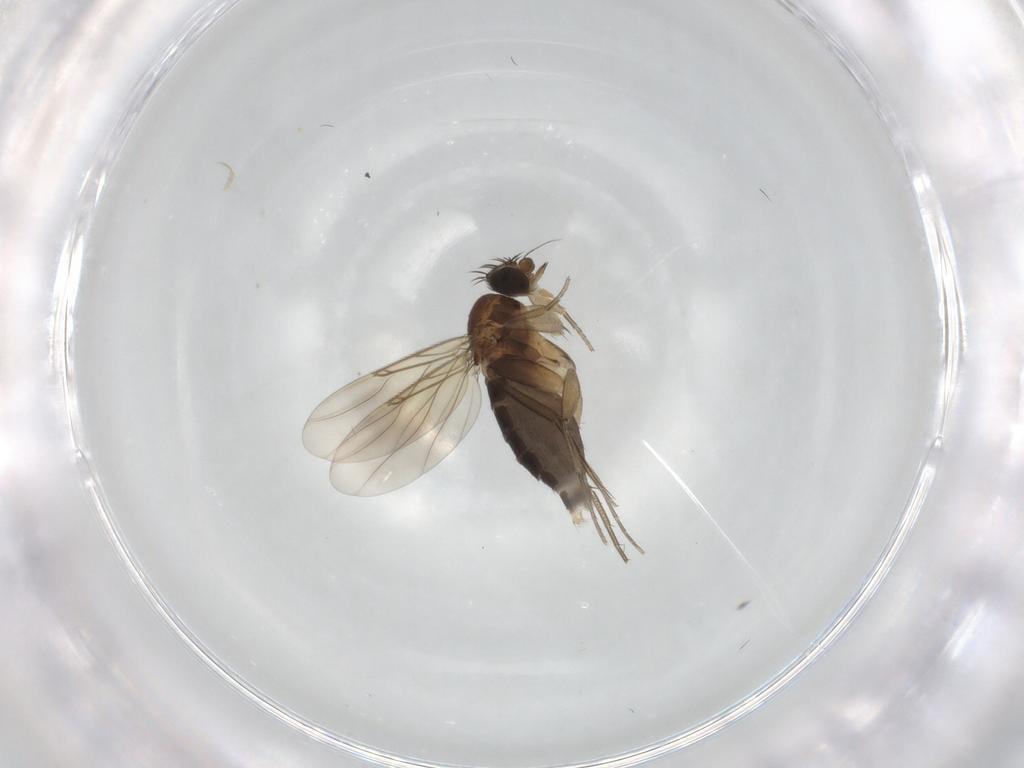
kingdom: Animalia
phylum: Arthropoda
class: Insecta
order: Diptera
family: Phoridae
